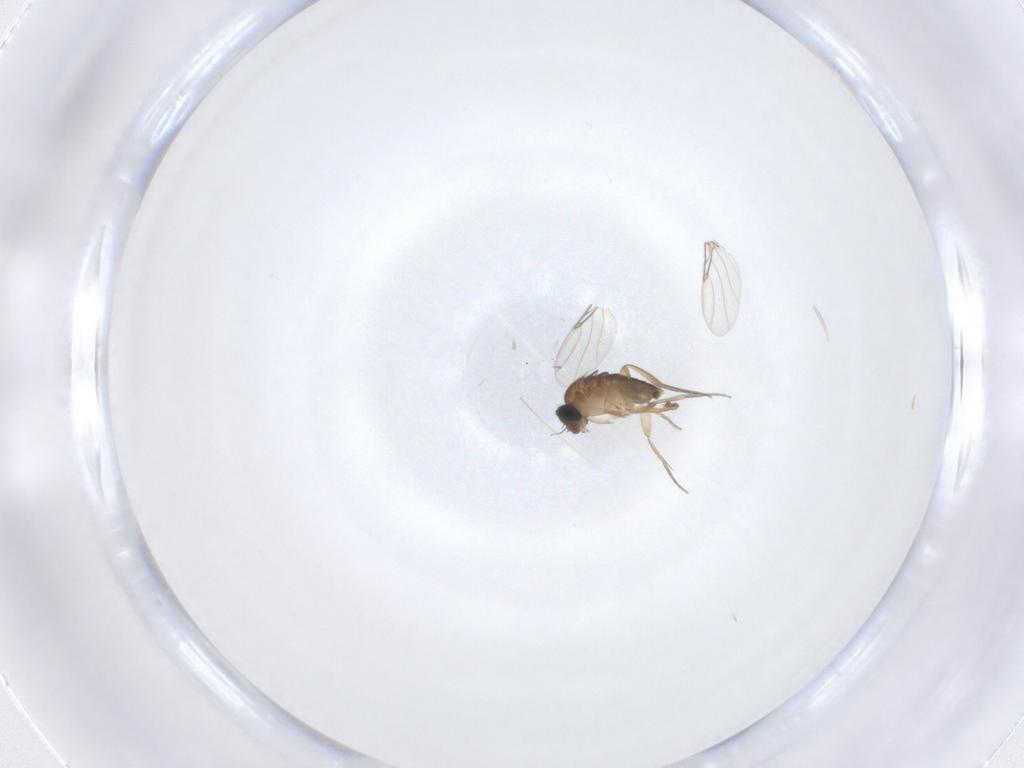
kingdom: Animalia
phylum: Arthropoda
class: Insecta
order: Diptera
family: Phoridae
